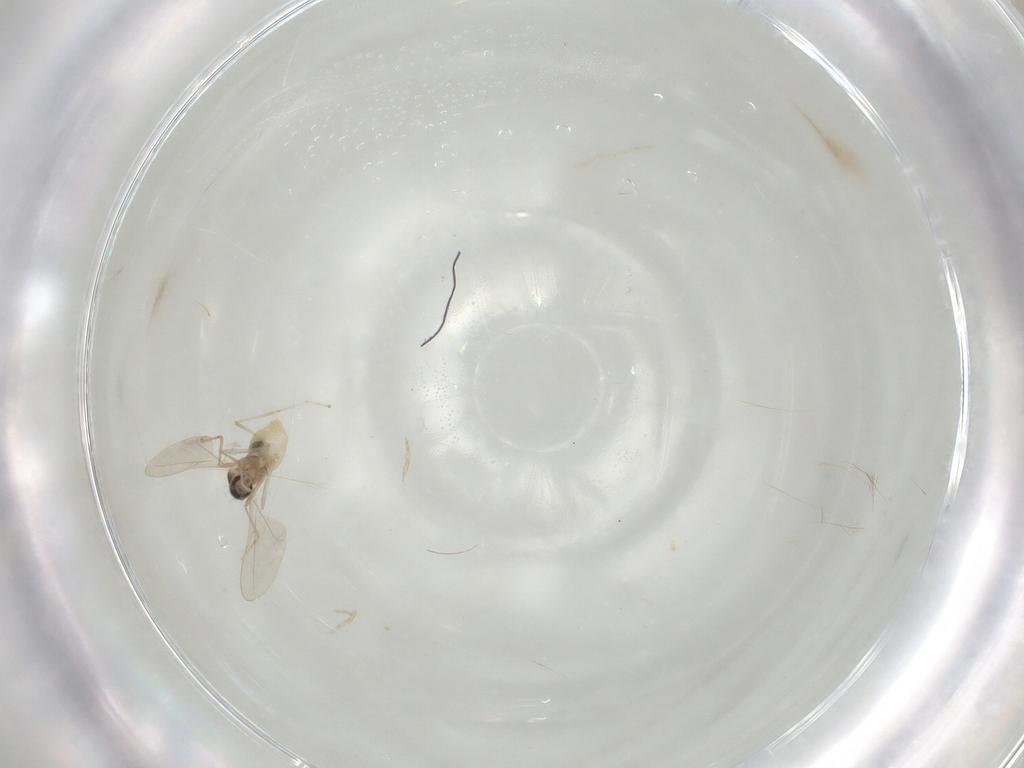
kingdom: Animalia
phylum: Arthropoda
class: Insecta
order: Diptera
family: Cecidomyiidae
